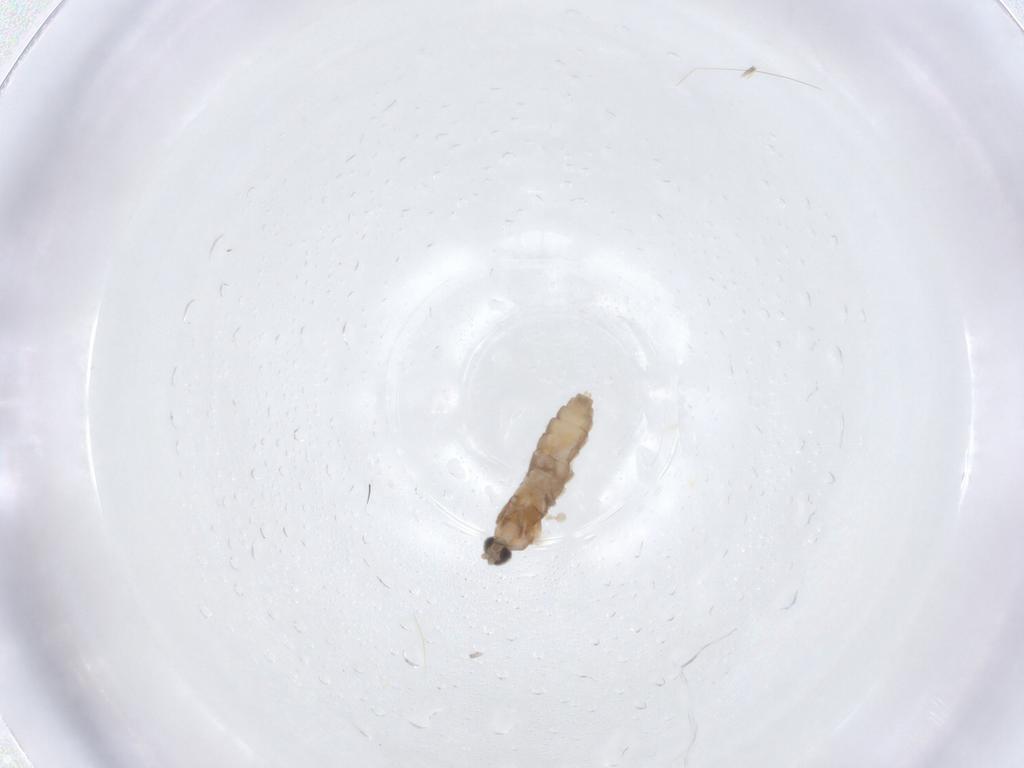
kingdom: Animalia
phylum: Arthropoda
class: Insecta
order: Diptera
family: Cecidomyiidae
